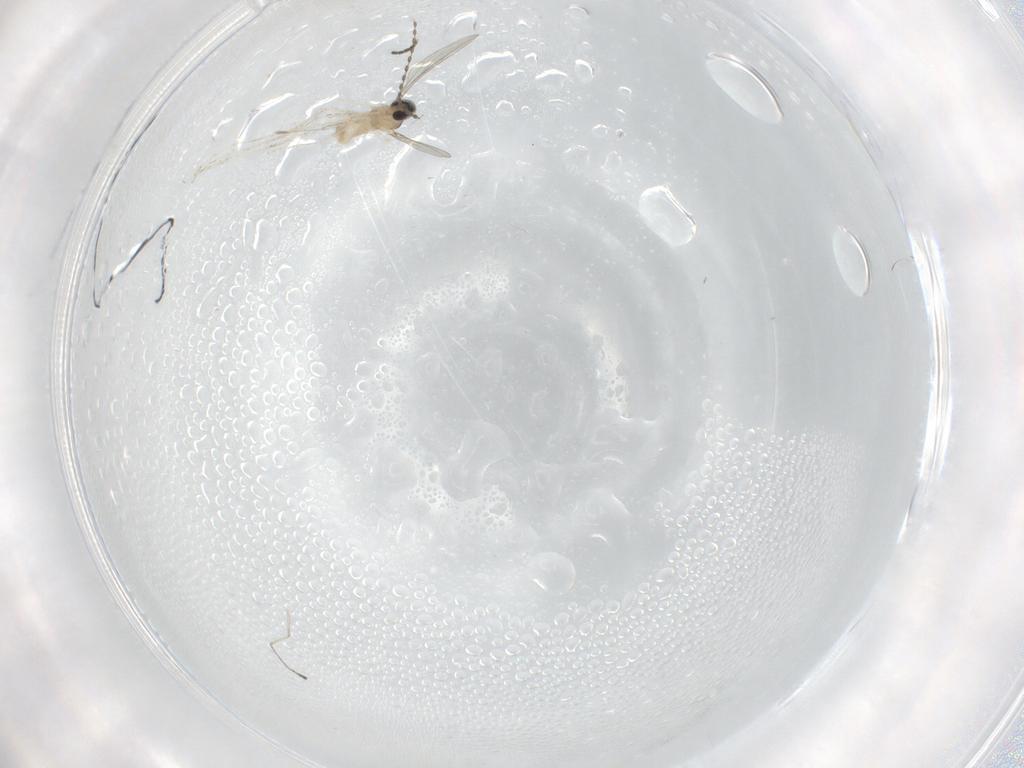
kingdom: Animalia
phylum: Arthropoda
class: Insecta
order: Diptera
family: Cecidomyiidae
